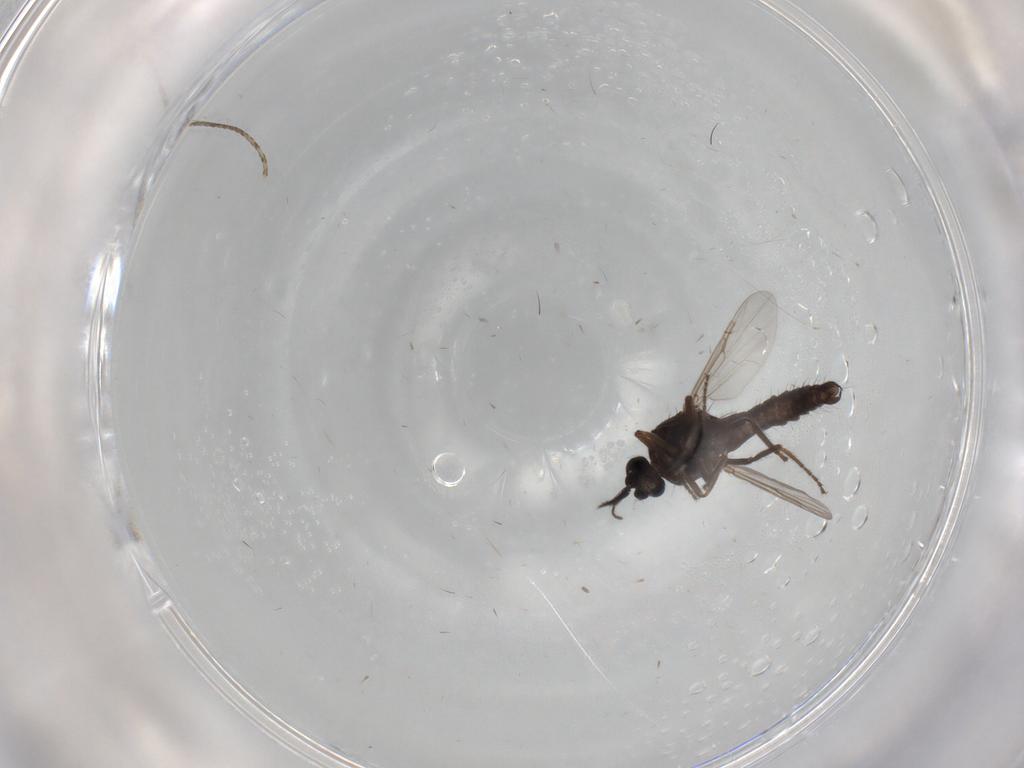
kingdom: Animalia
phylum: Arthropoda
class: Insecta
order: Diptera
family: Ceratopogonidae
